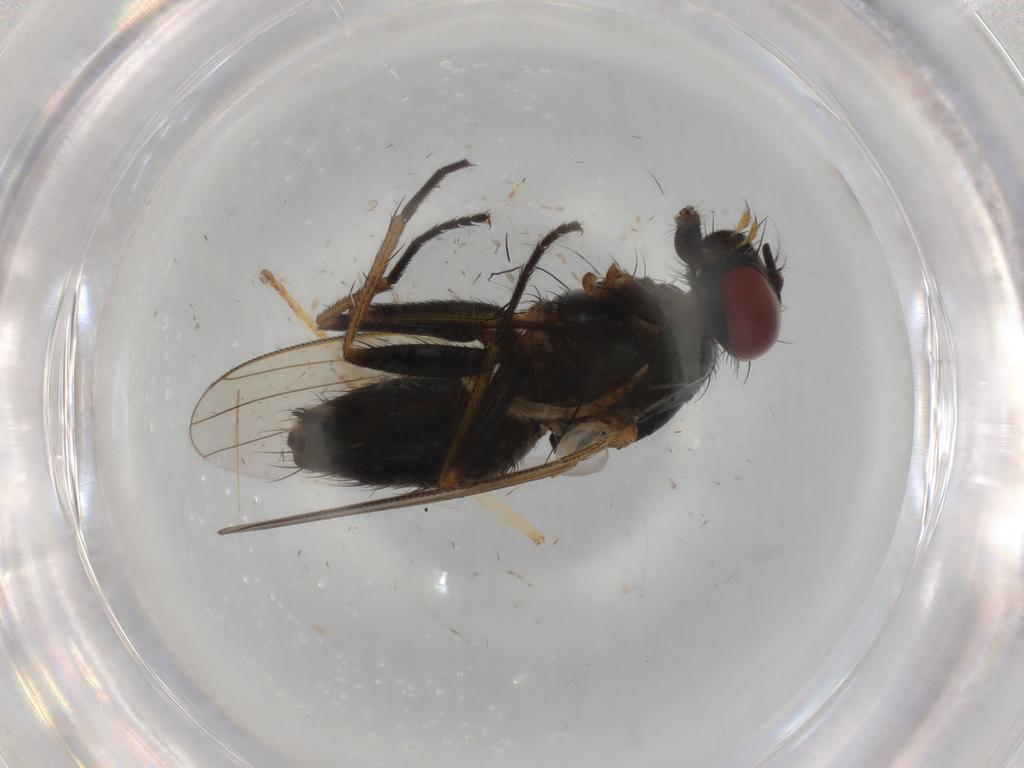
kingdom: Animalia
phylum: Arthropoda
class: Insecta
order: Diptera
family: Muscidae
